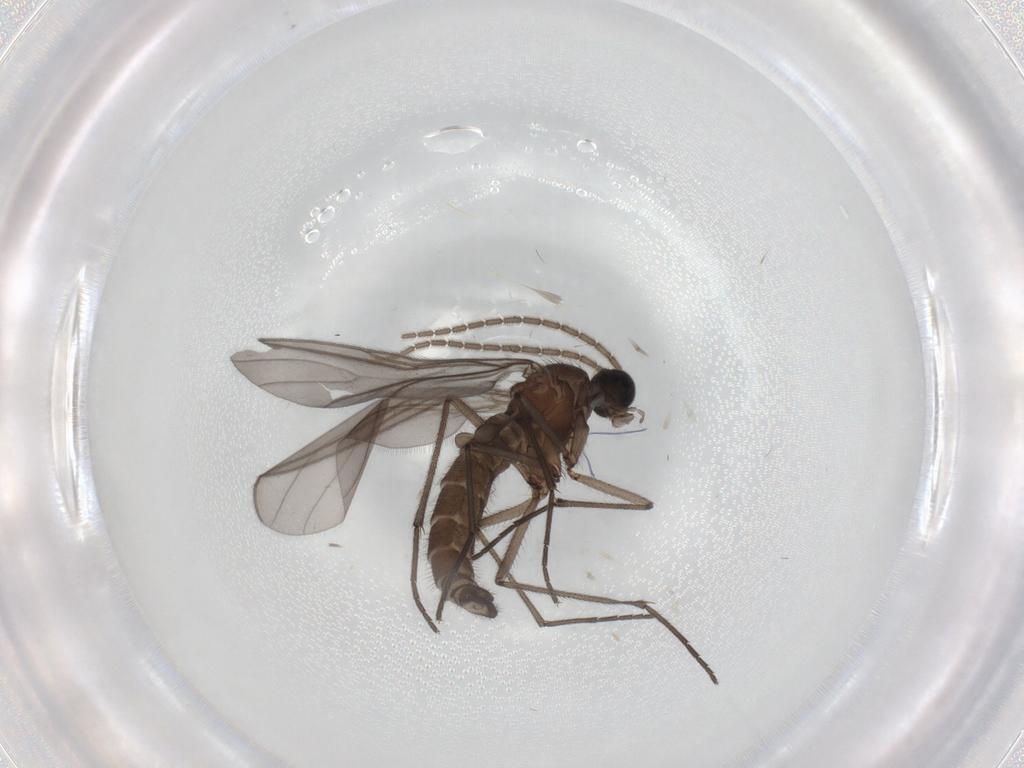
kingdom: Animalia
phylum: Arthropoda
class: Insecta
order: Diptera
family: Sciaridae
